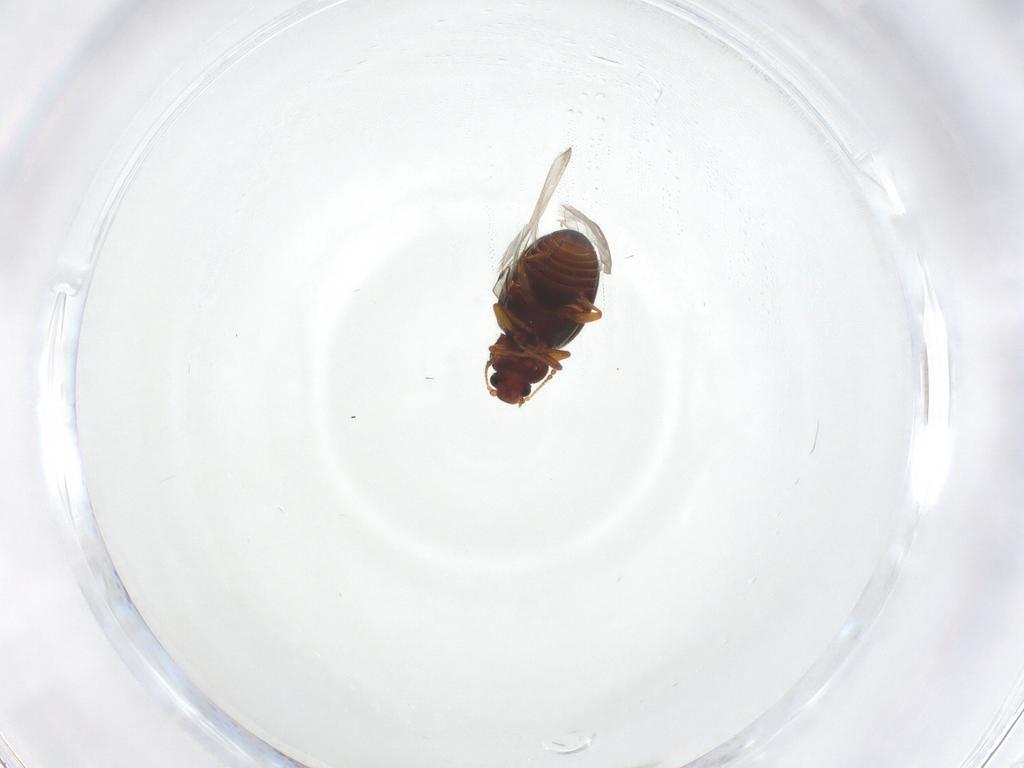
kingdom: Animalia
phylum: Arthropoda
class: Insecta
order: Coleoptera
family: Latridiidae
